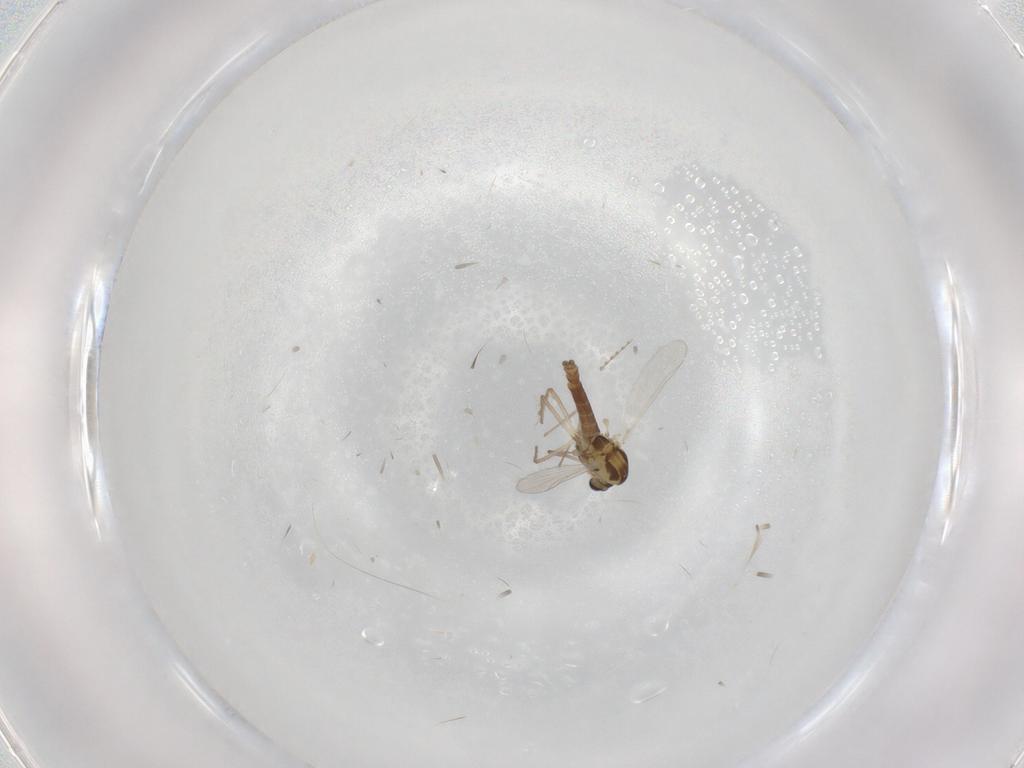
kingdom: Animalia
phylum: Arthropoda
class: Insecta
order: Diptera
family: Chironomidae
